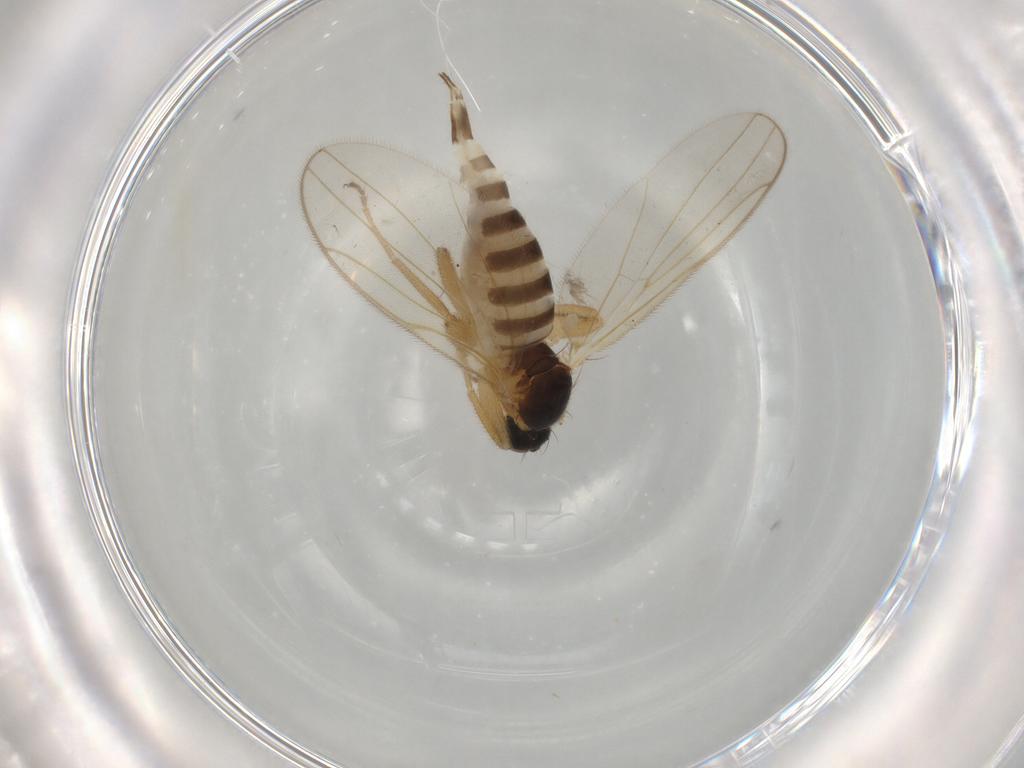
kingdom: Animalia
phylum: Arthropoda
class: Insecta
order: Diptera
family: Hybotidae
